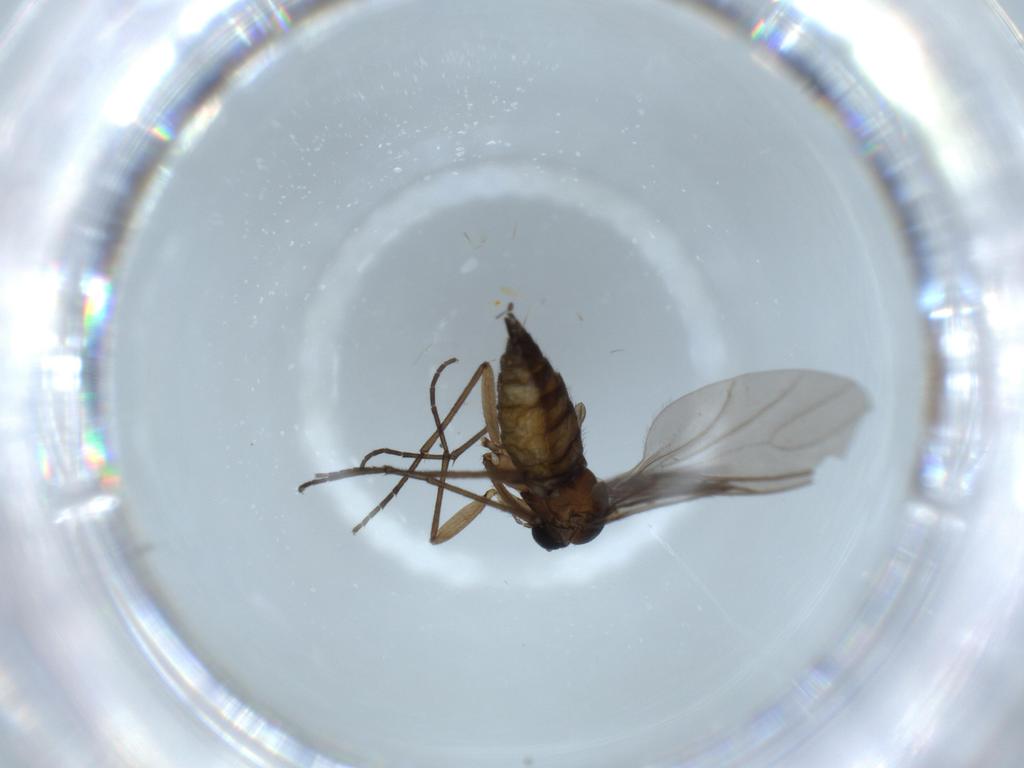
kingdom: Animalia
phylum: Arthropoda
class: Insecta
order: Diptera
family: Sciaridae
